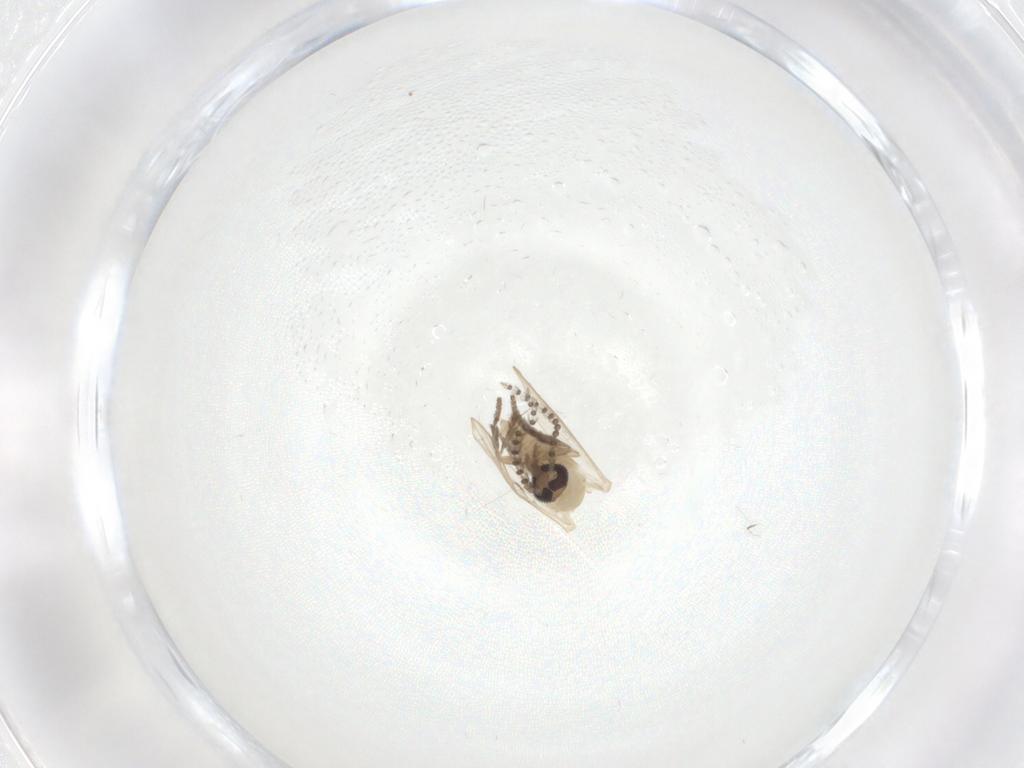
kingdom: Animalia
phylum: Arthropoda
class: Insecta
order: Diptera
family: Psychodidae
